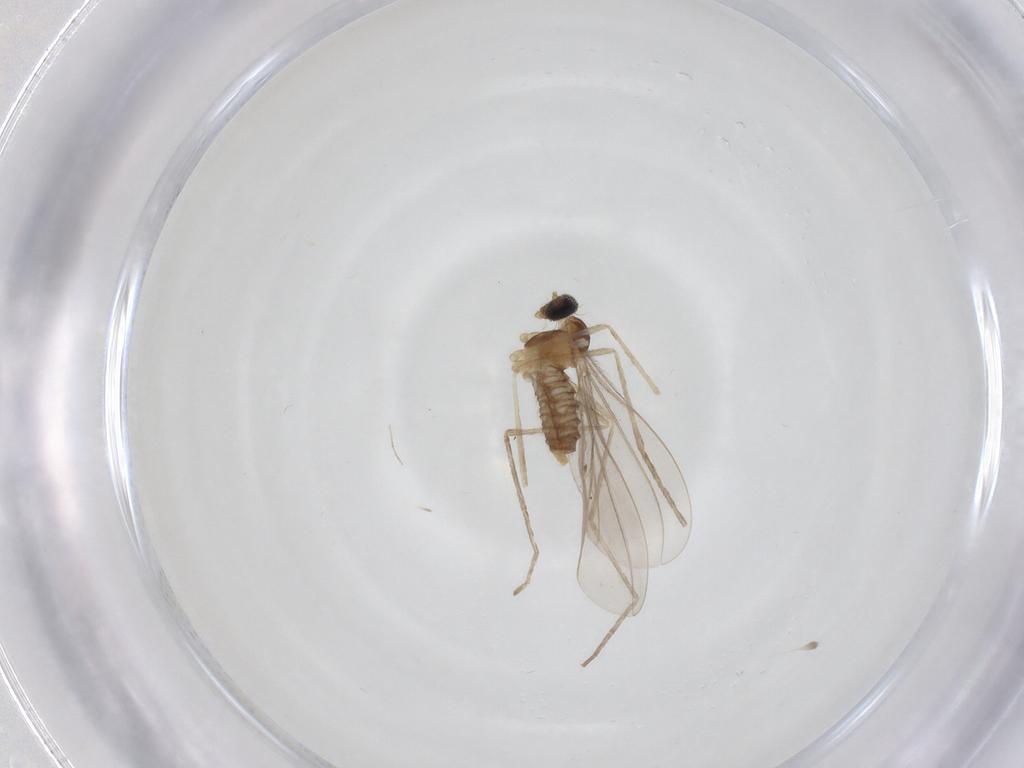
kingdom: Animalia
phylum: Arthropoda
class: Insecta
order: Diptera
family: Cecidomyiidae
